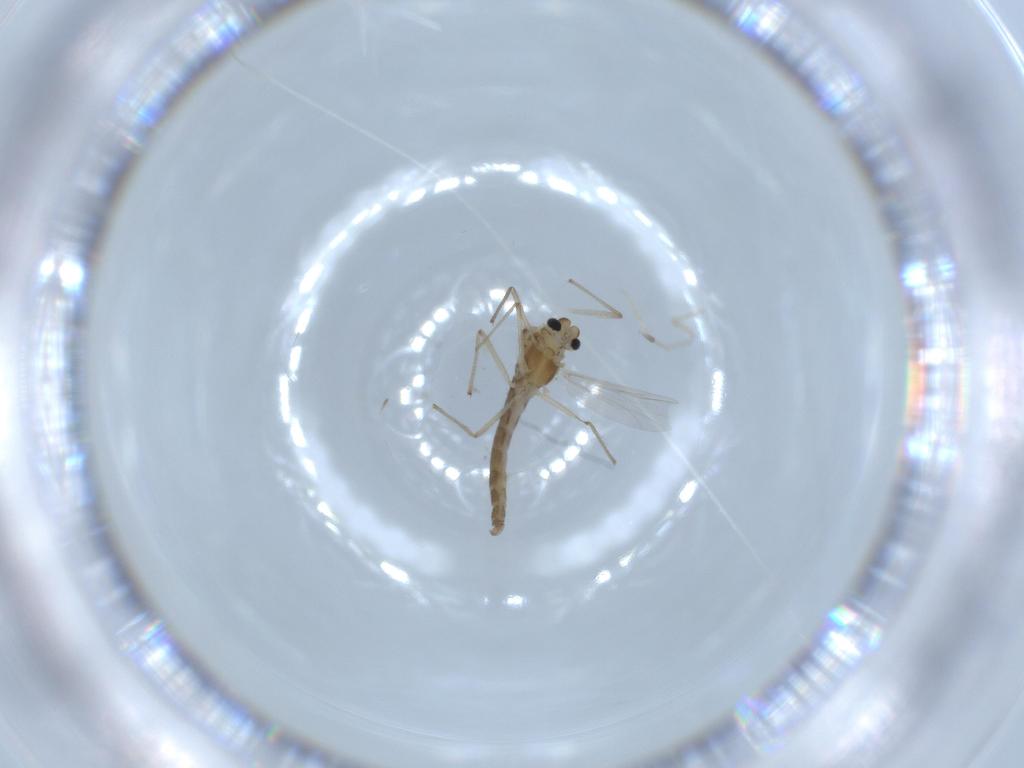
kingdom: Animalia
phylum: Arthropoda
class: Insecta
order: Diptera
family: Chironomidae
